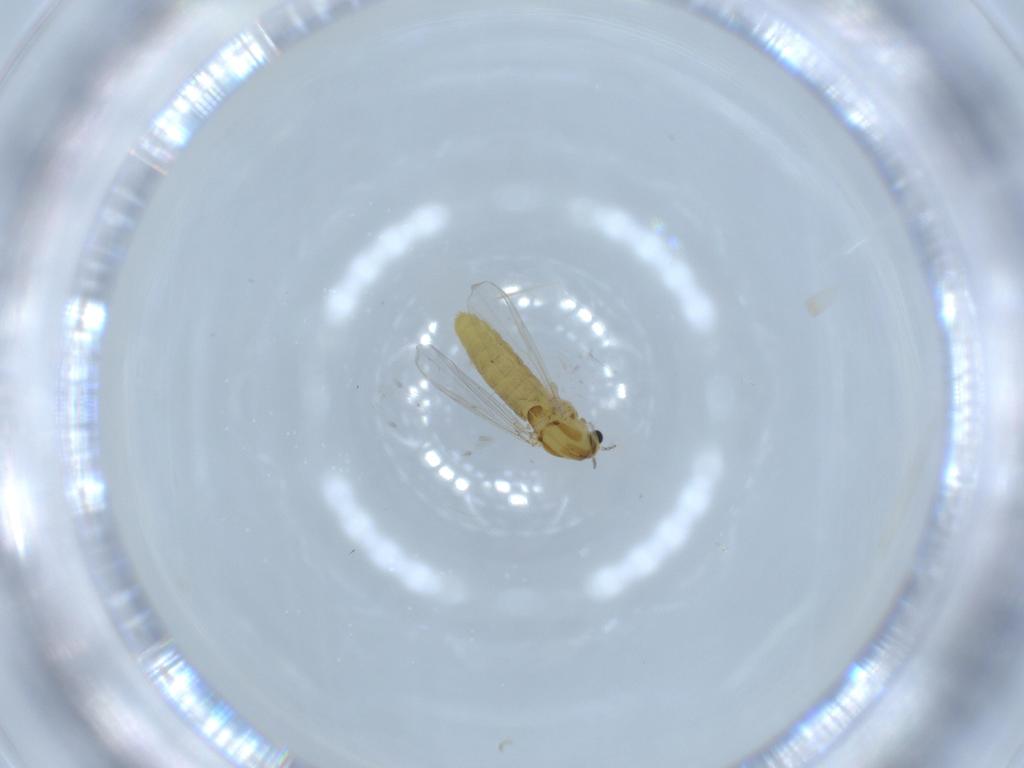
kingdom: Animalia
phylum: Arthropoda
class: Insecta
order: Diptera
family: Chironomidae
